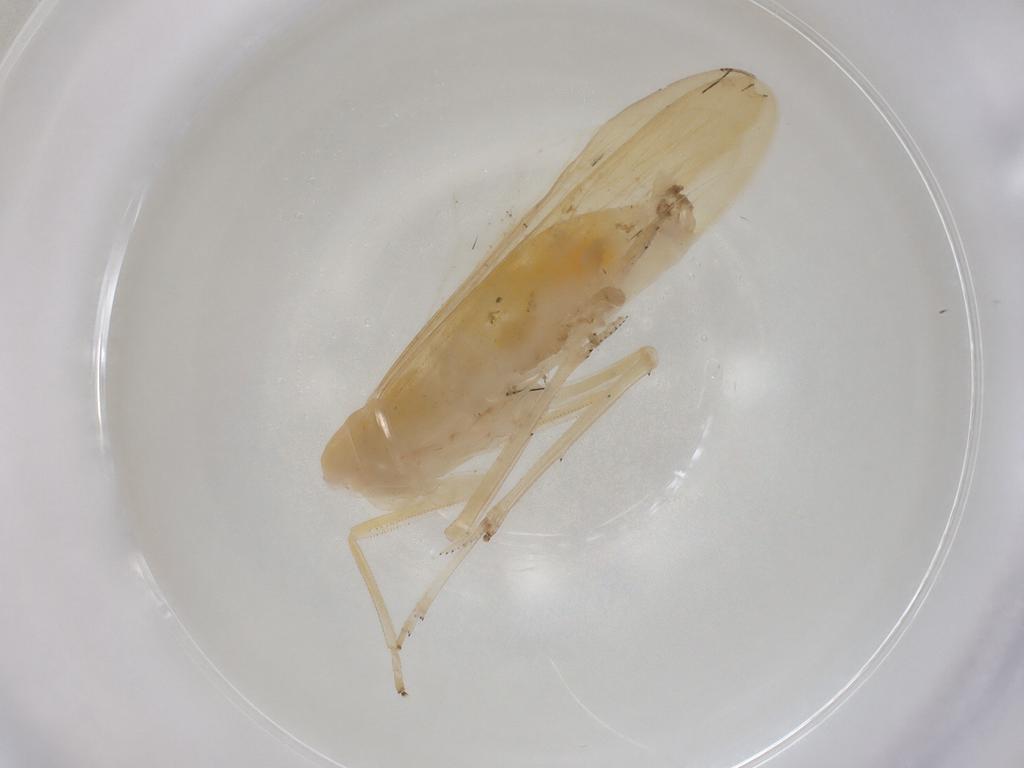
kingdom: Animalia
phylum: Arthropoda
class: Insecta
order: Hemiptera
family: Delphacidae
